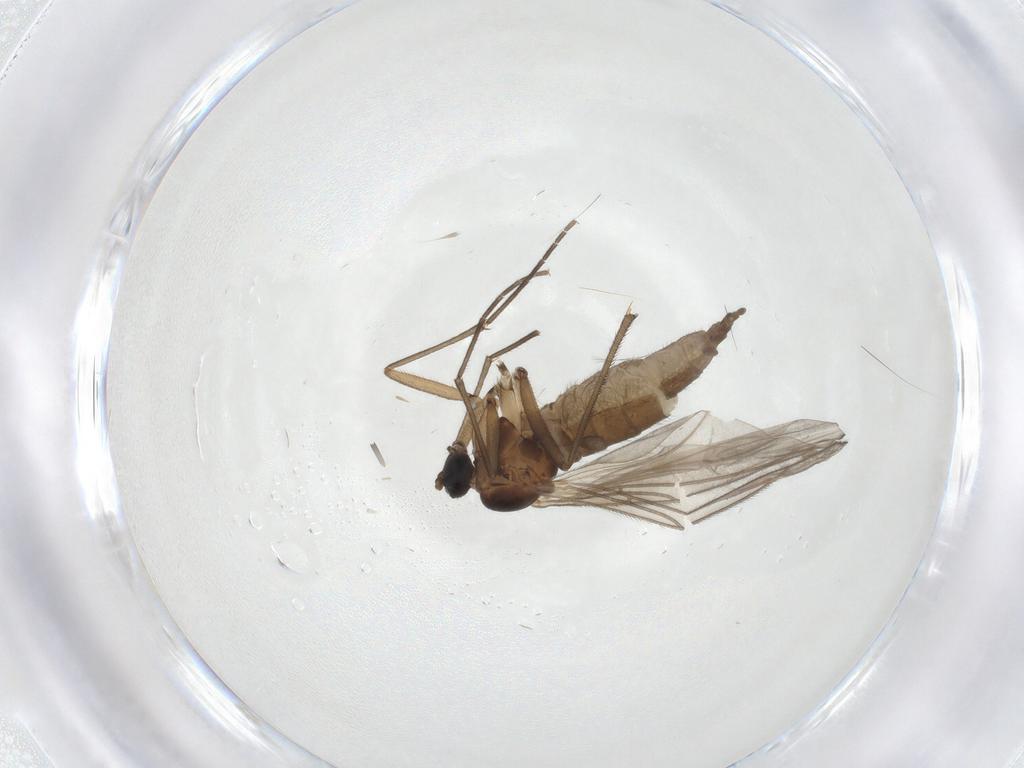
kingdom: Animalia
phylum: Arthropoda
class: Insecta
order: Diptera
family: Sciaridae
